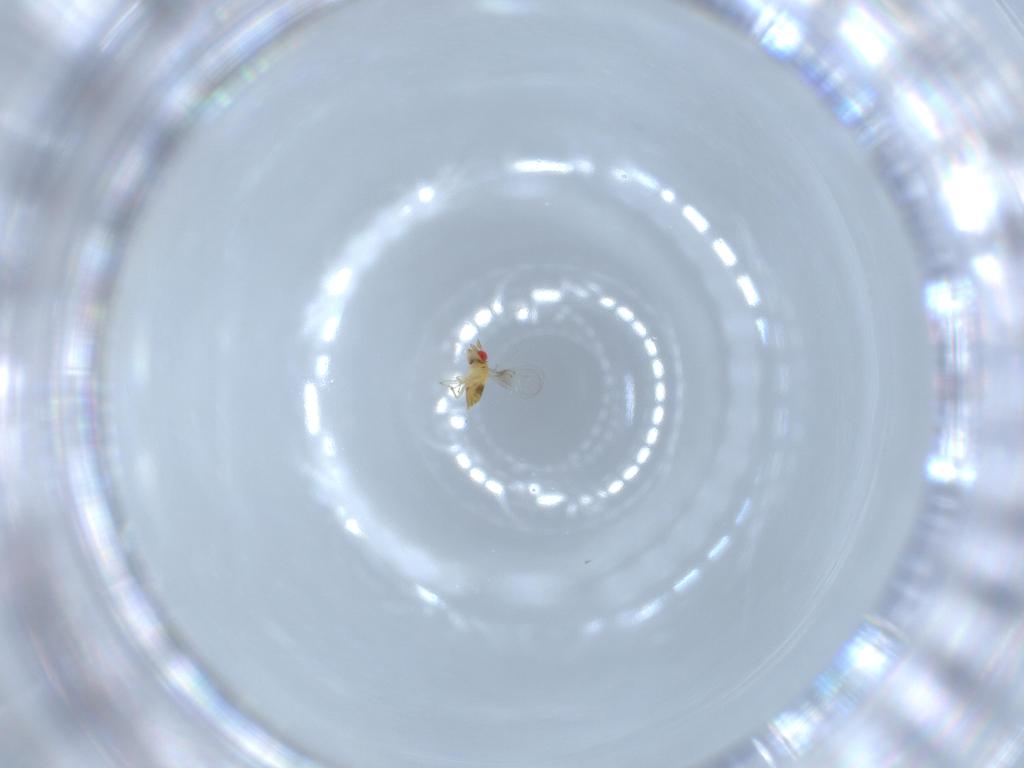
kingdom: Animalia
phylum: Arthropoda
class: Insecta
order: Hymenoptera
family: Trichogrammatidae
